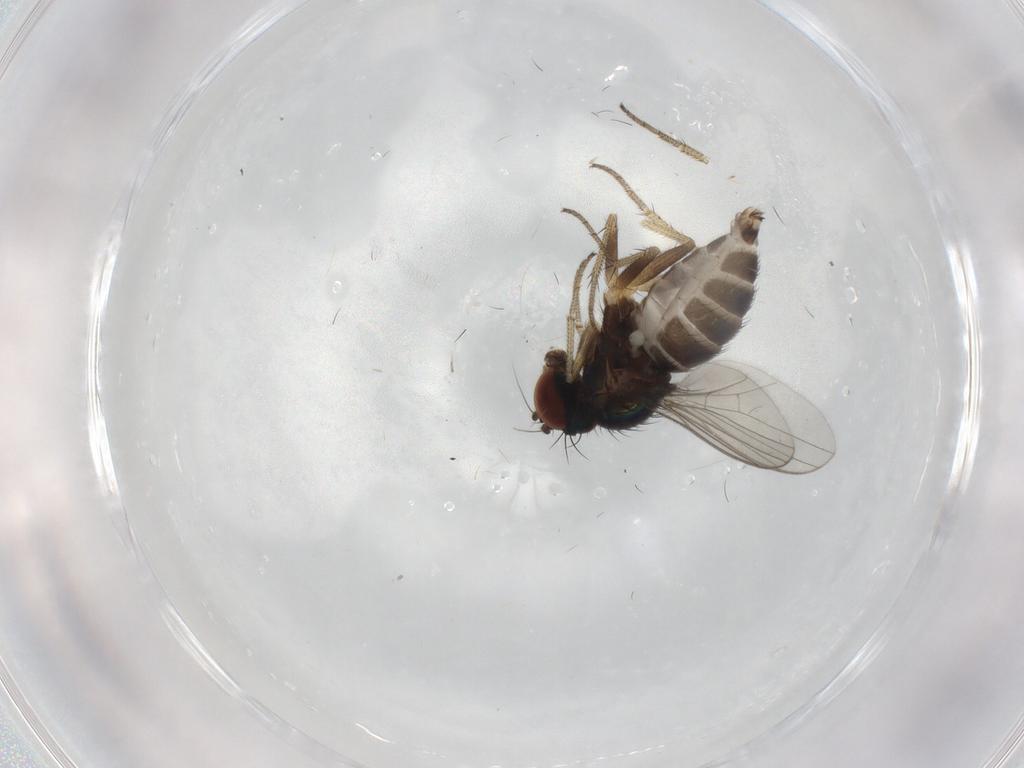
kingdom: Animalia
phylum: Arthropoda
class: Insecta
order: Diptera
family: Dolichopodidae
